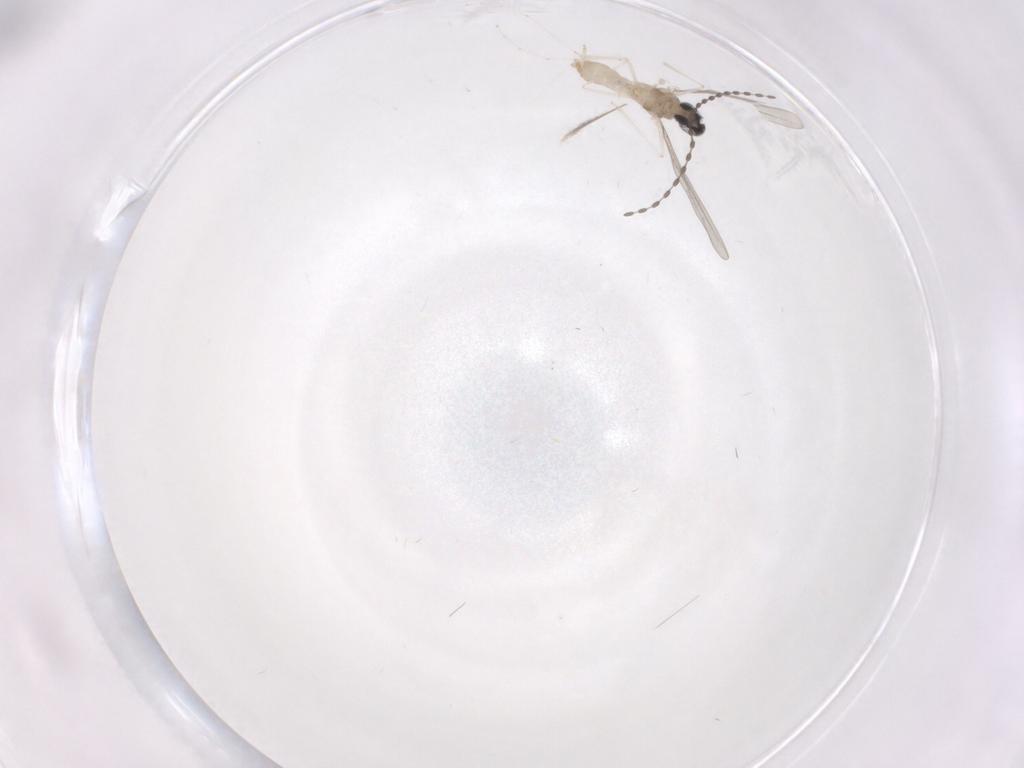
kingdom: Animalia
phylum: Arthropoda
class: Insecta
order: Diptera
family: Cecidomyiidae
